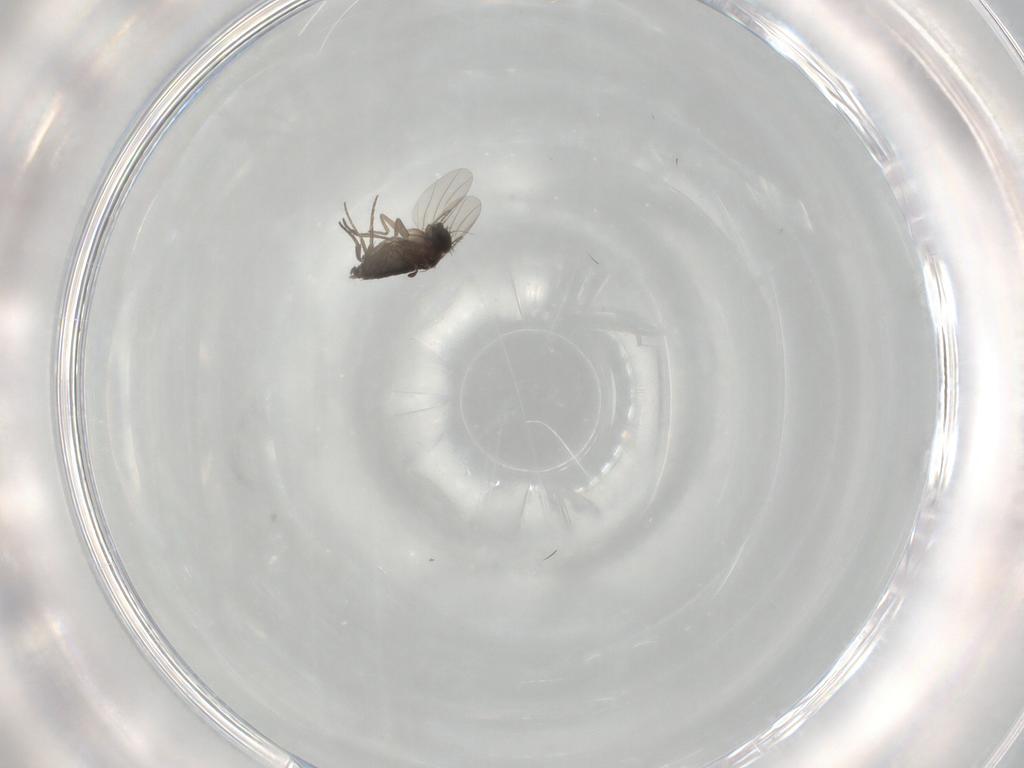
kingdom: Animalia
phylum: Arthropoda
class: Insecta
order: Diptera
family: Phoridae
